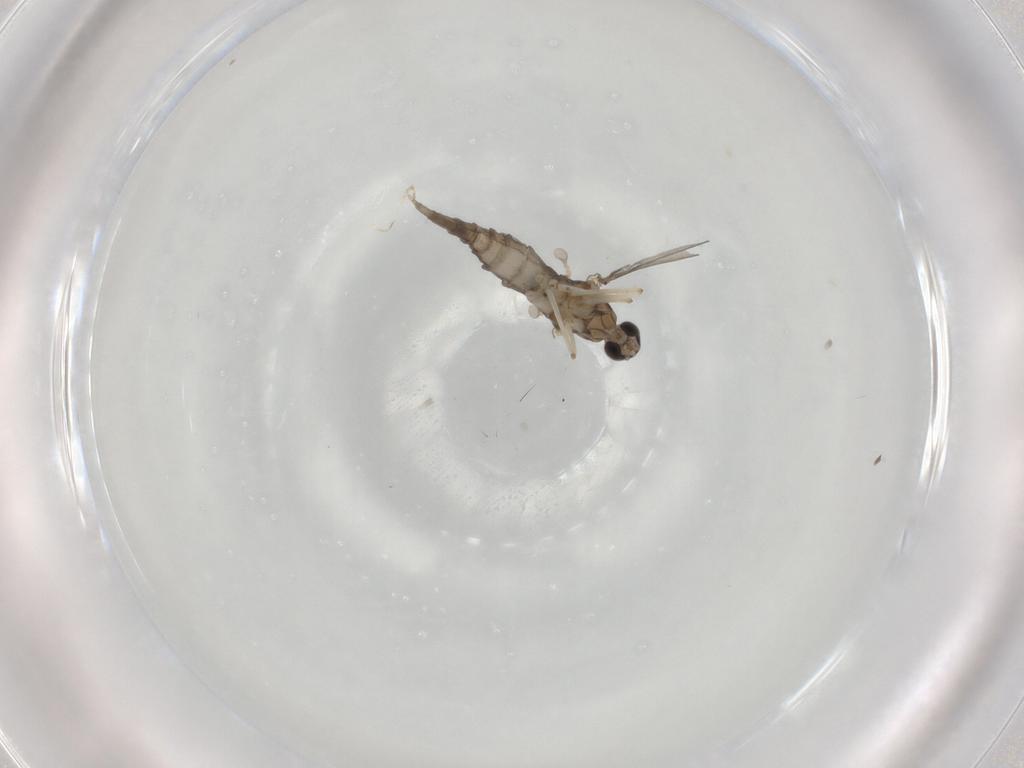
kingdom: Animalia
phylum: Arthropoda
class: Insecta
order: Diptera
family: Cecidomyiidae
